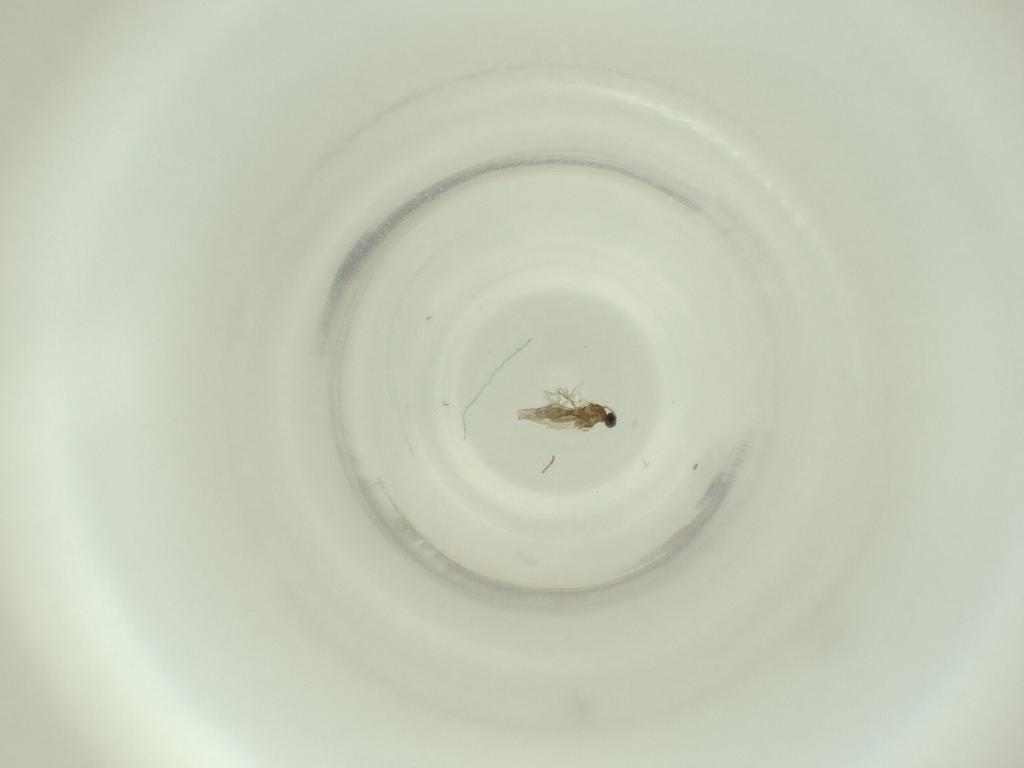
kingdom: Animalia
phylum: Arthropoda
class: Insecta
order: Diptera
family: Cecidomyiidae
